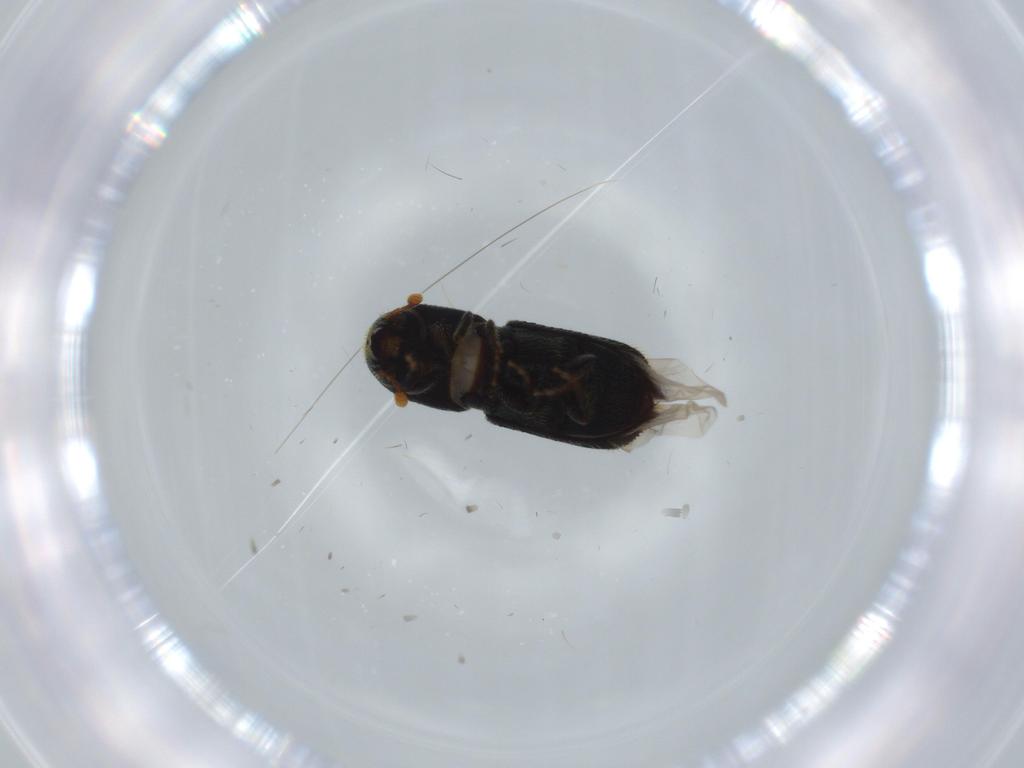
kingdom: Animalia
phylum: Arthropoda
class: Insecta
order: Coleoptera
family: Curculionidae
